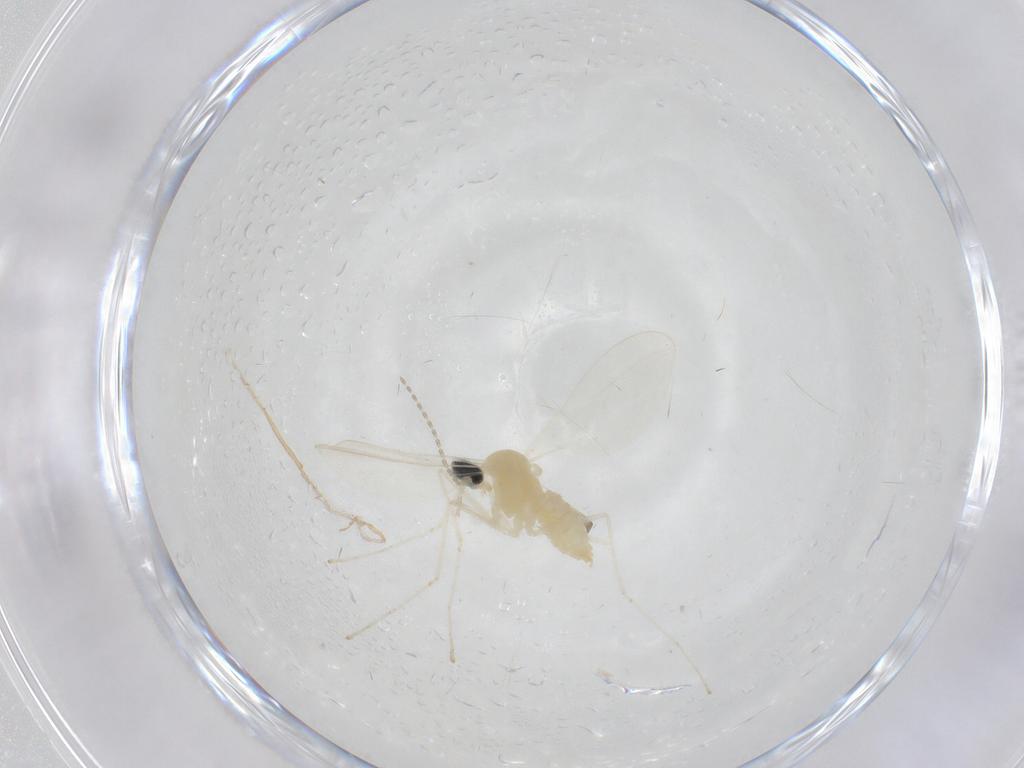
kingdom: Animalia
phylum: Arthropoda
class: Insecta
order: Diptera
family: Cecidomyiidae
